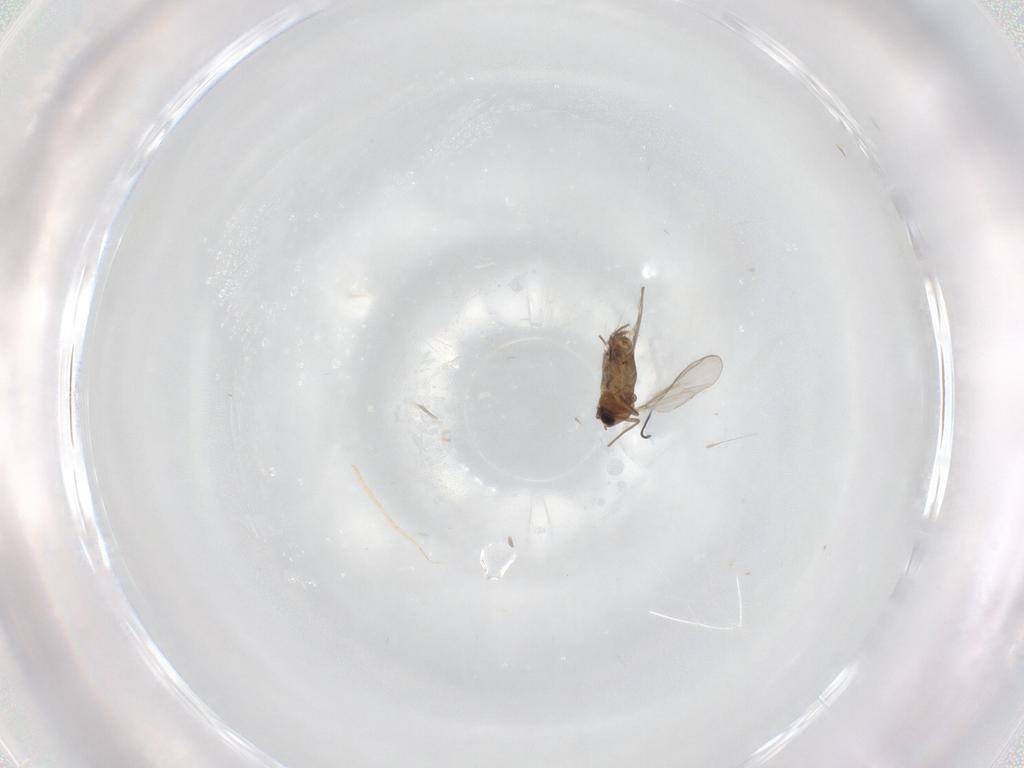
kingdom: Animalia
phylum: Arthropoda
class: Insecta
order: Diptera
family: Chironomidae
